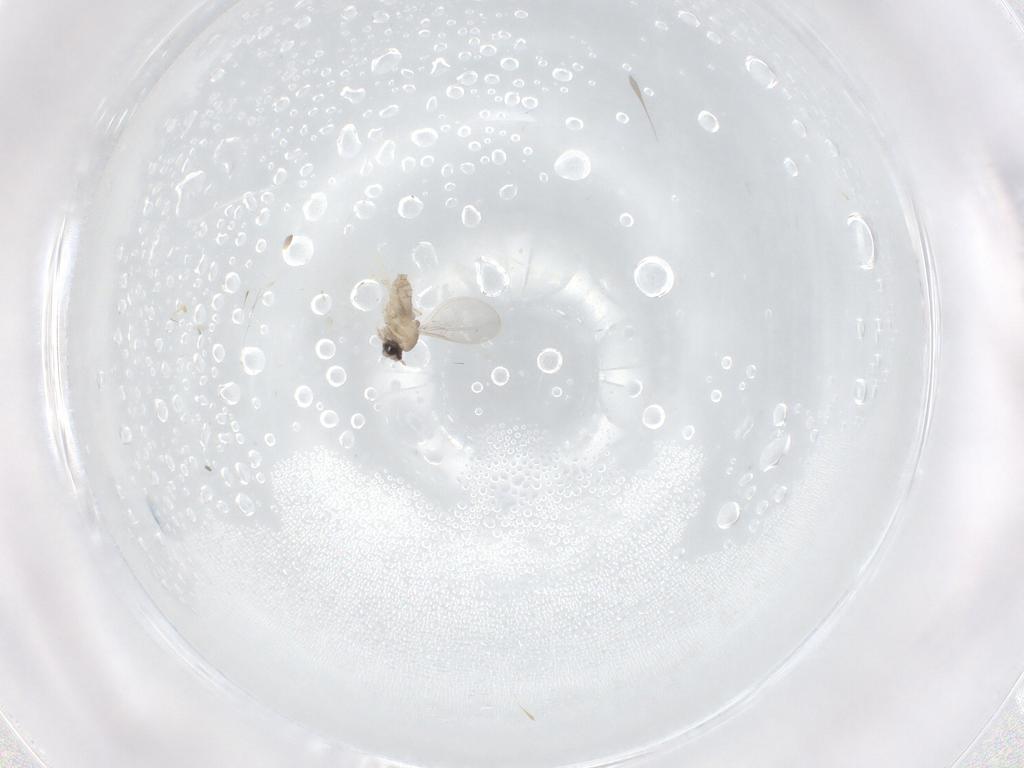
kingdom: Animalia
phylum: Arthropoda
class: Insecta
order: Diptera
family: Cecidomyiidae
